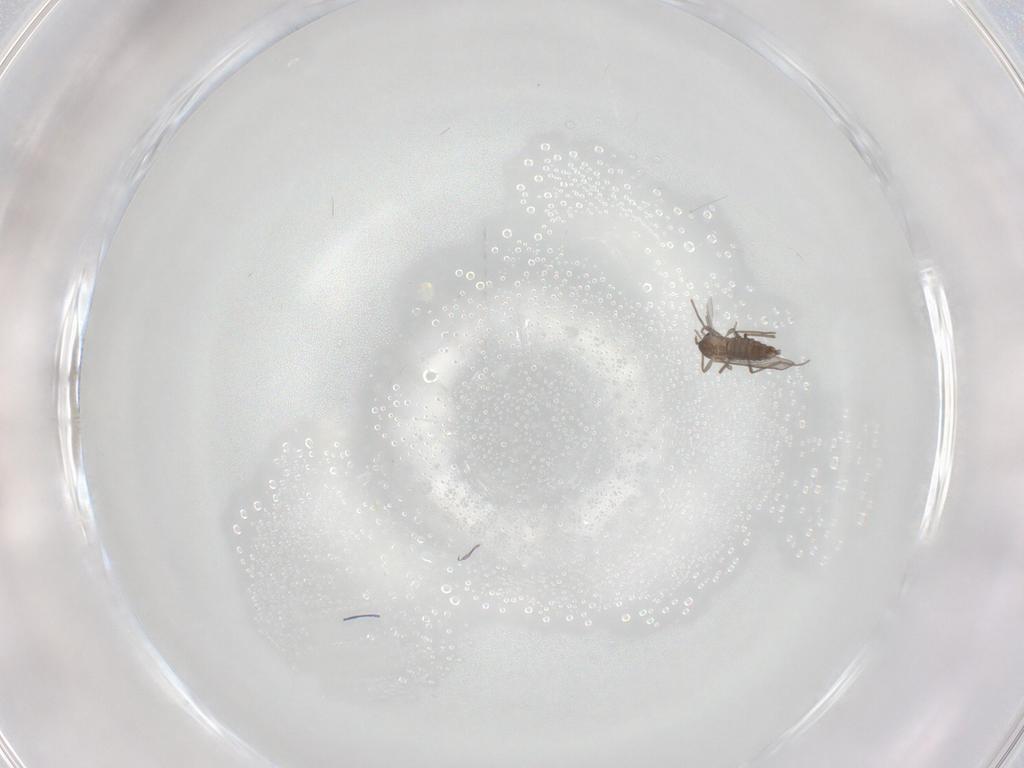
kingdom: Animalia
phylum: Arthropoda
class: Insecta
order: Diptera
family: Chironomidae
